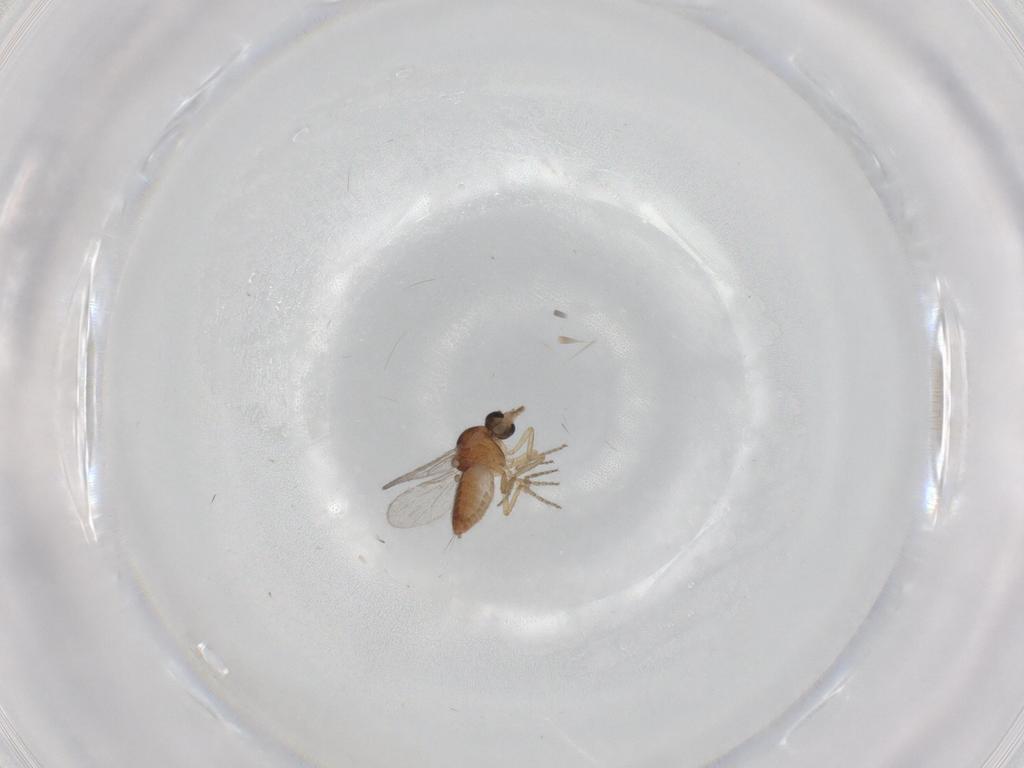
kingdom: Animalia
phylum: Arthropoda
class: Insecta
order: Diptera
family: Ceratopogonidae
